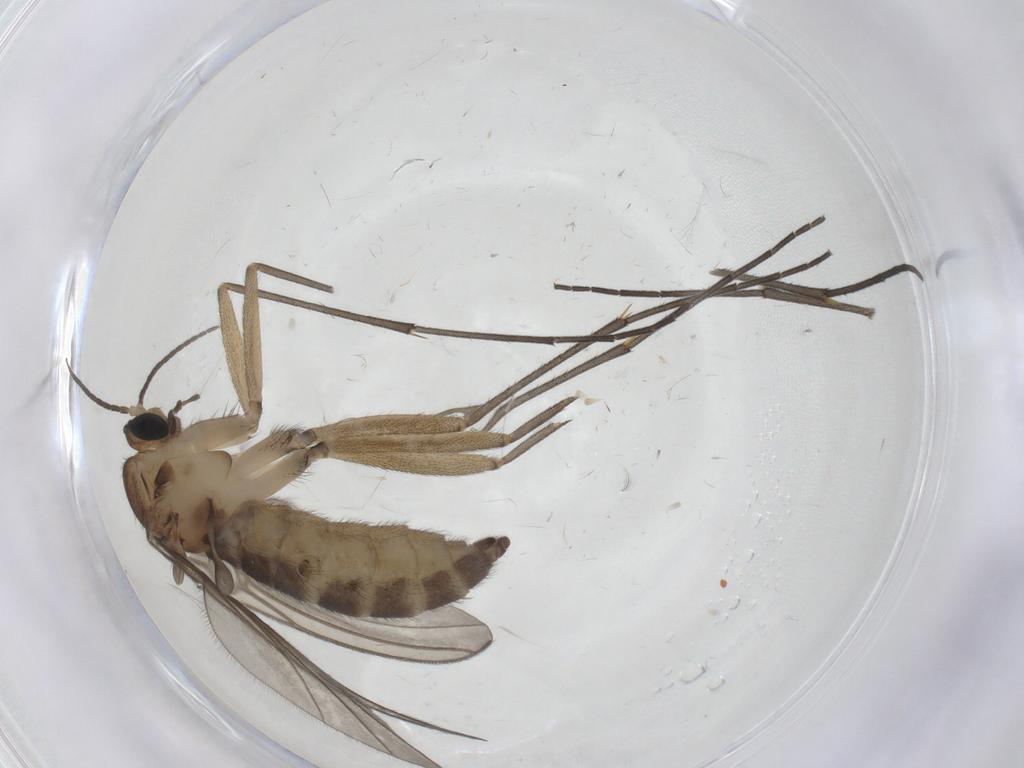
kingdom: Animalia
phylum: Arthropoda
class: Insecta
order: Diptera
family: Sciaridae
